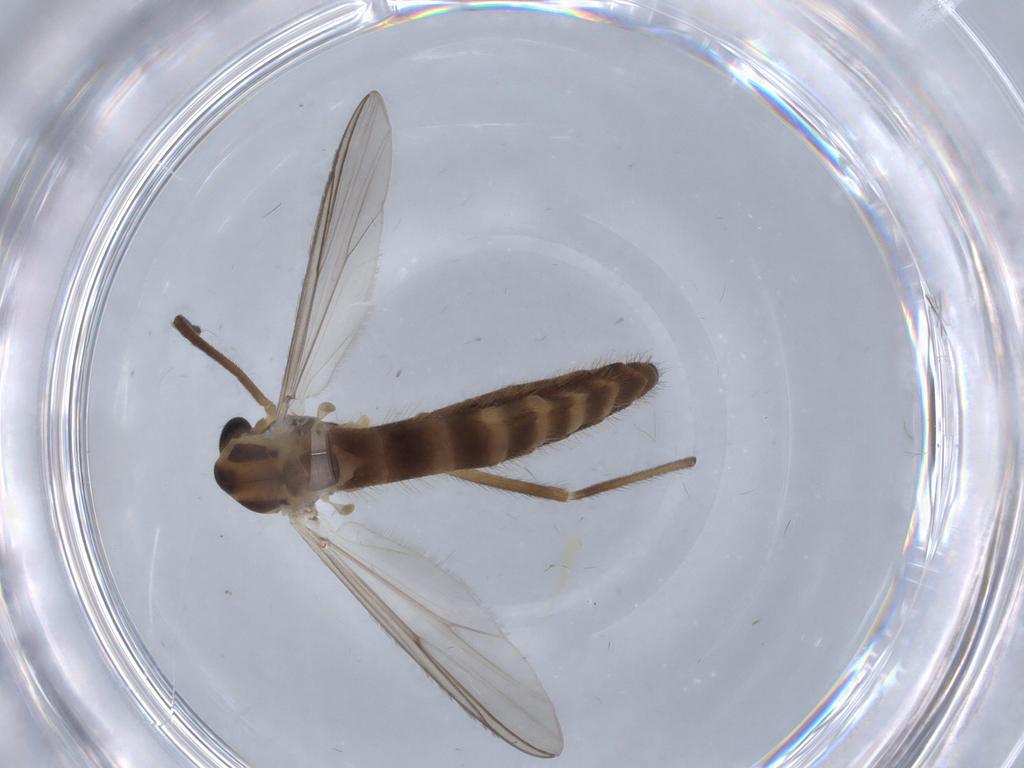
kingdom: Animalia
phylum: Arthropoda
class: Insecta
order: Diptera
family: Chironomidae
